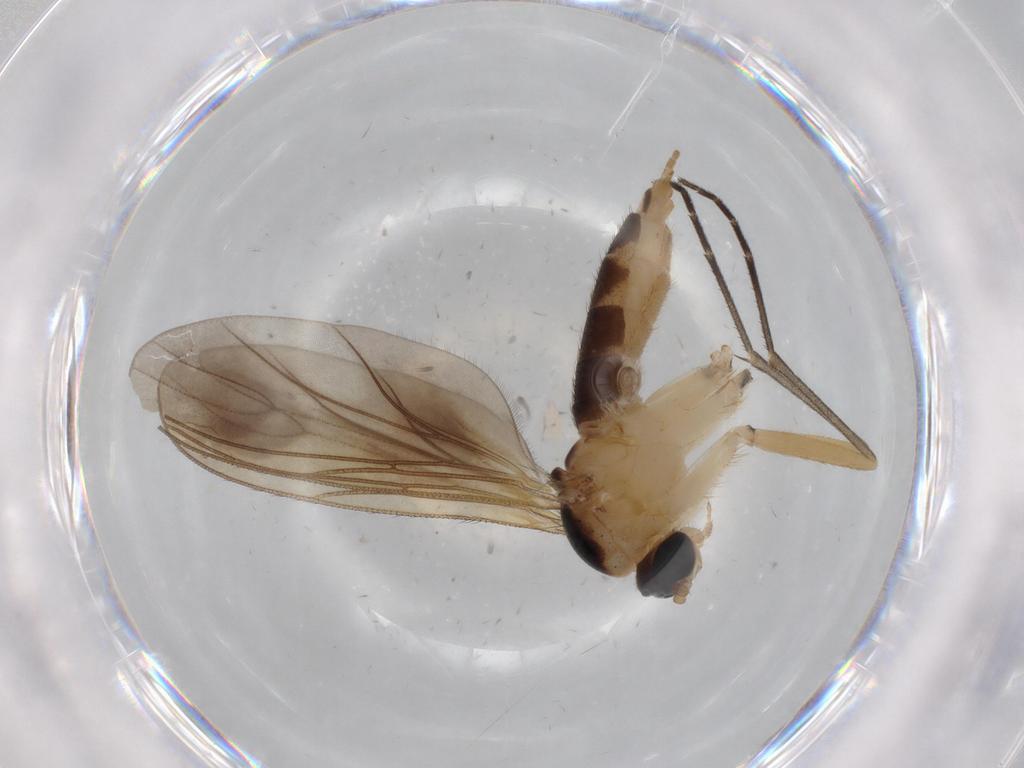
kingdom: Animalia
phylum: Arthropoda
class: Insecta
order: Diptera
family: Sciaridae
